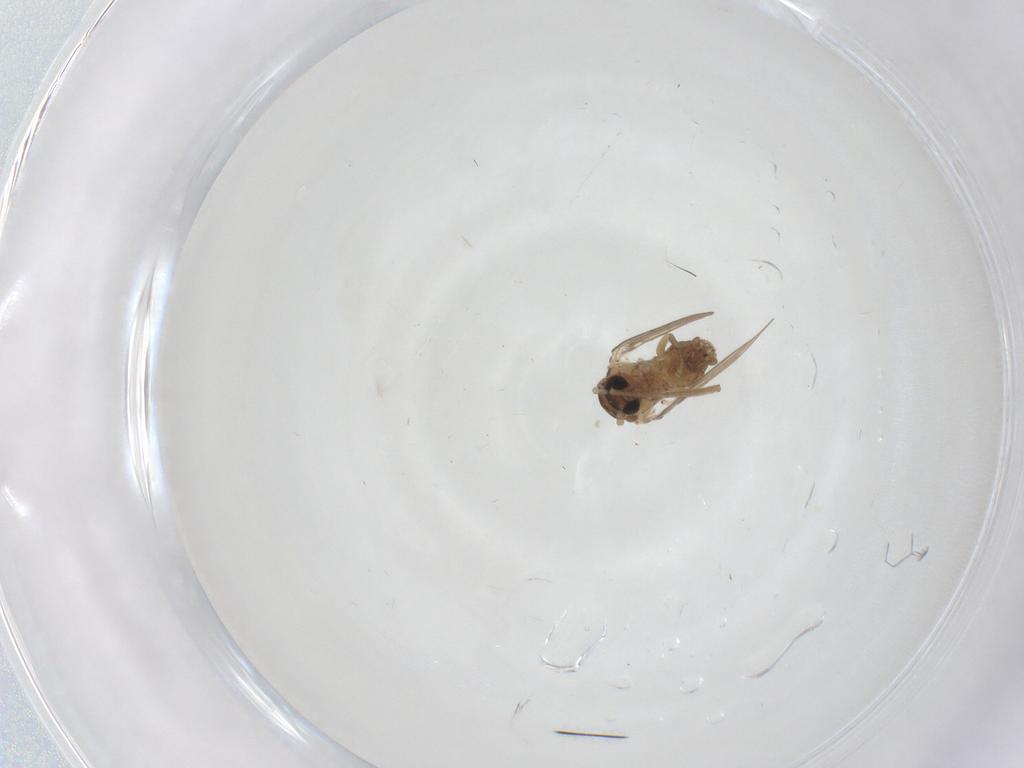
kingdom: Animalia
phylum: Arthropoda
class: Insecta
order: Diptera
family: Psychodidae
